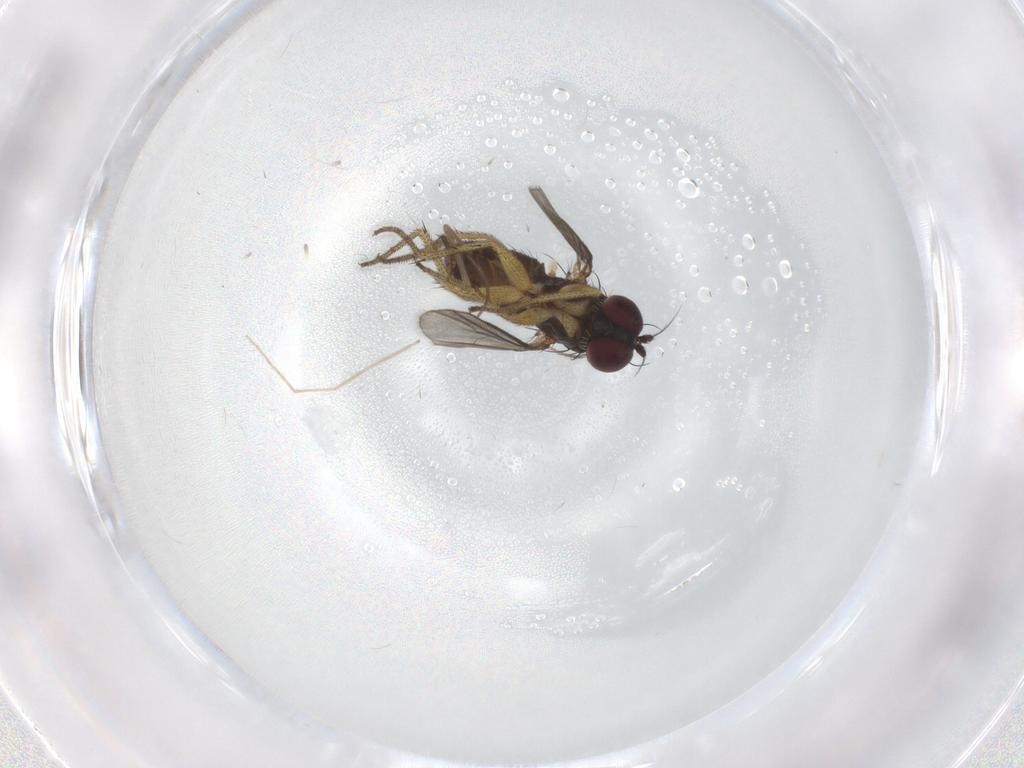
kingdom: Animalia
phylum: Arthropoda
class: Insecta
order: Diptera
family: Chironomidae
